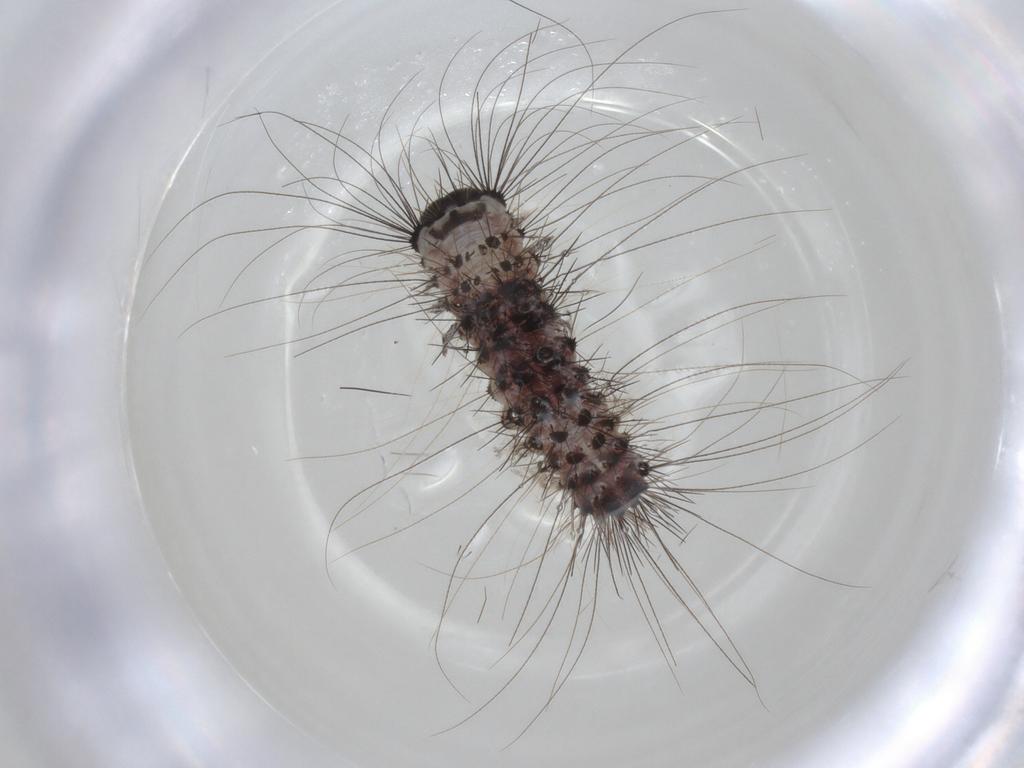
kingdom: Animalia
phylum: Arthropoda
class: Insecta
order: Lepidoptera
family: Erebidae
